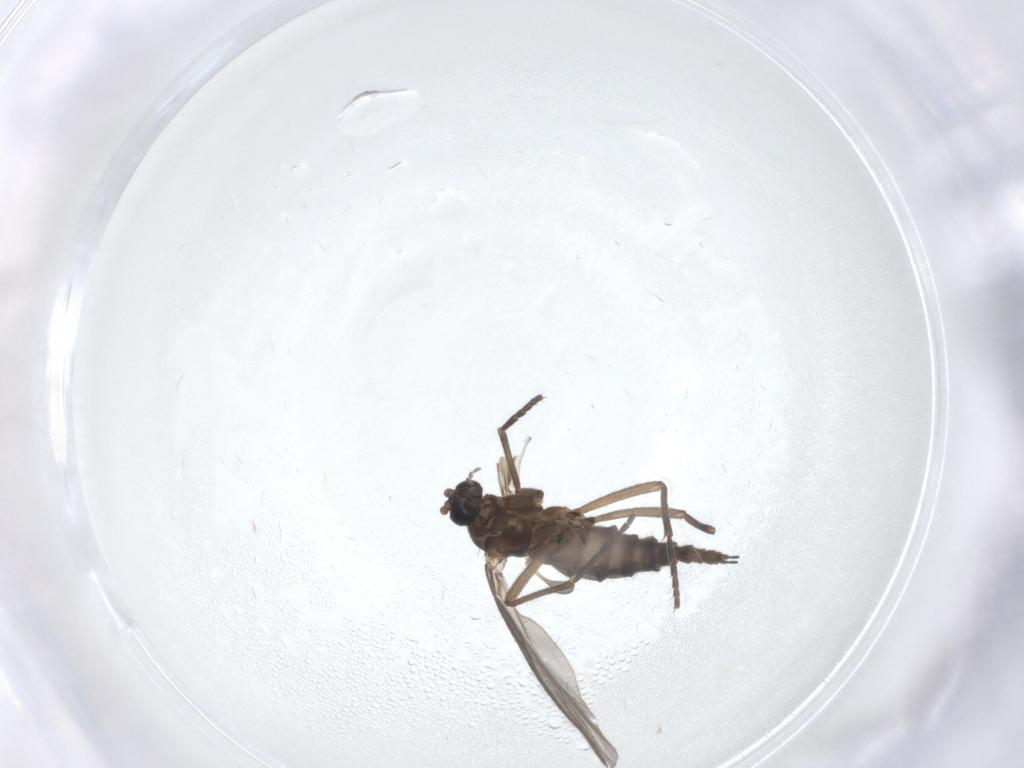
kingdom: Animalia
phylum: Arthropoda
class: Insecta
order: Diptera
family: Sciaridae
